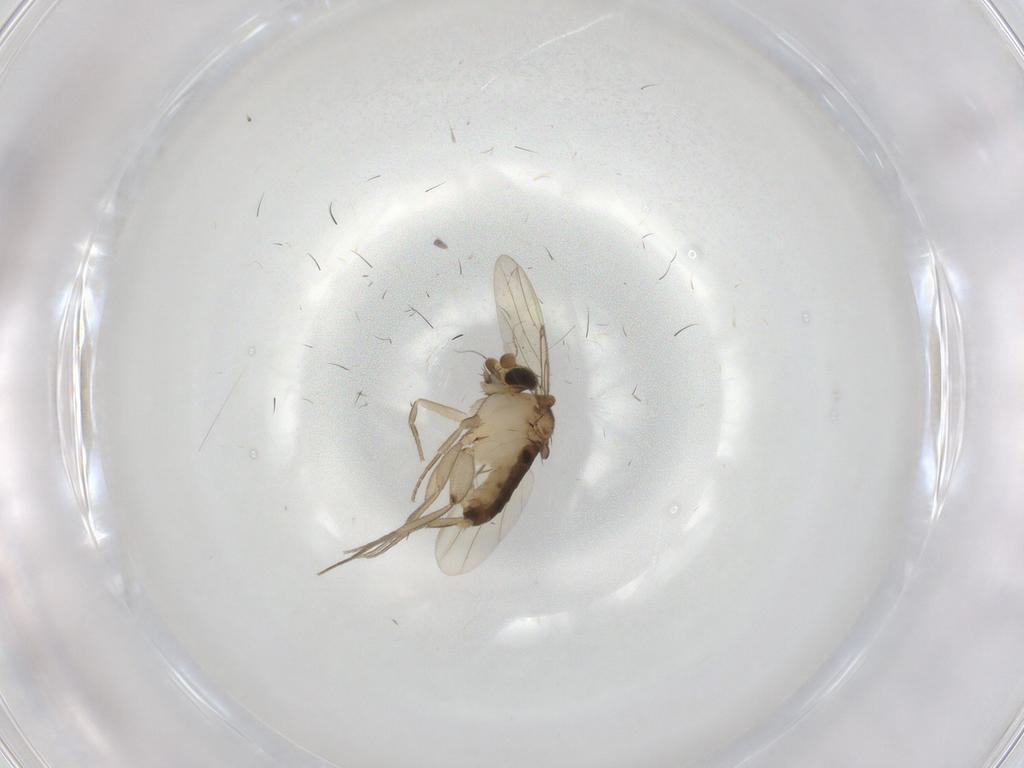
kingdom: Animalia
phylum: Arthropoda
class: Insecta
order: Diptera
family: Phoridae
